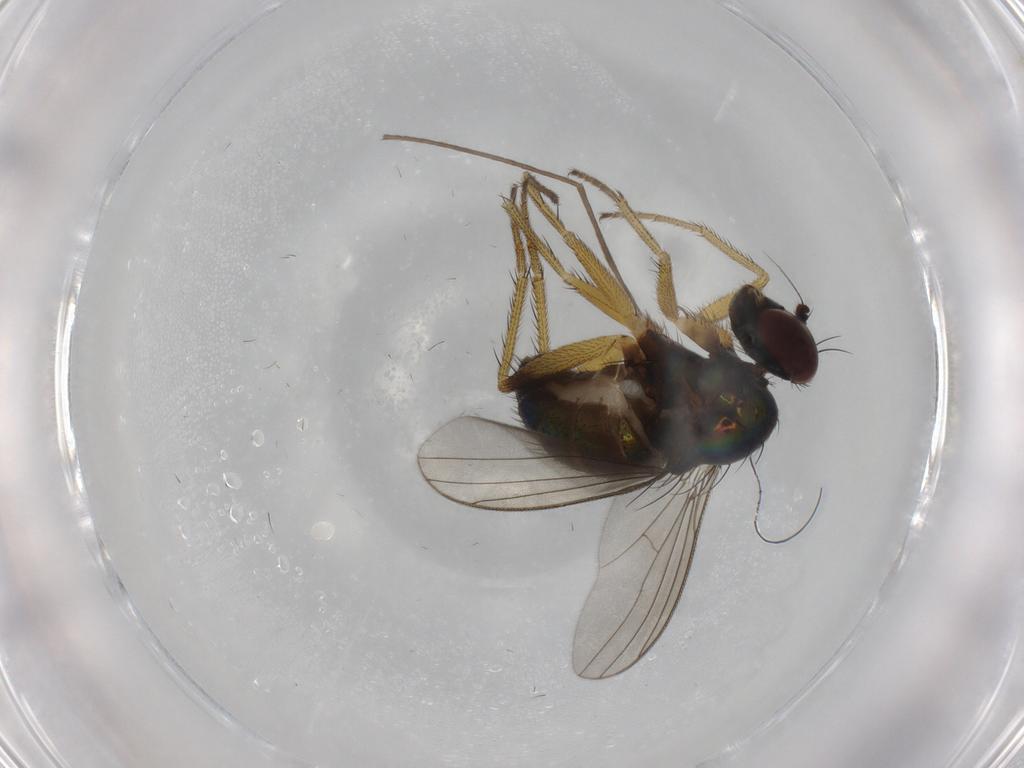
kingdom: Animalia
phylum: Arthropoda
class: Insecta
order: Diptera
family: Dolichopodidae
